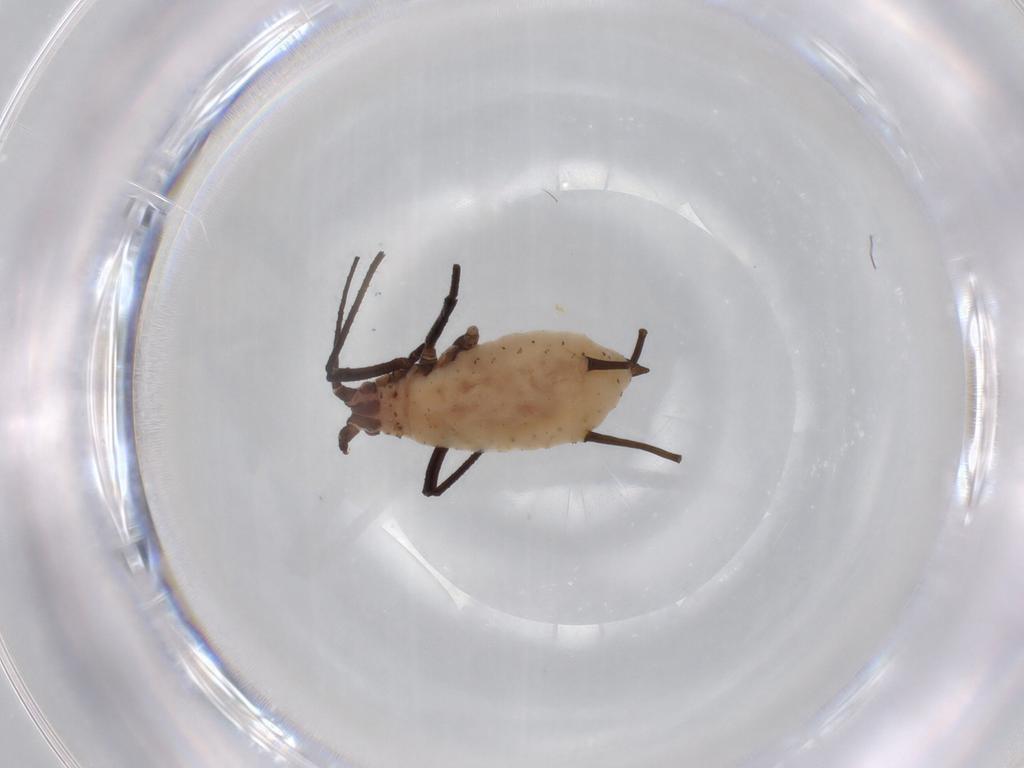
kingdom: Animalia
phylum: Arthropoda
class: Insecta
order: Hemiptera
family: Aphididae
